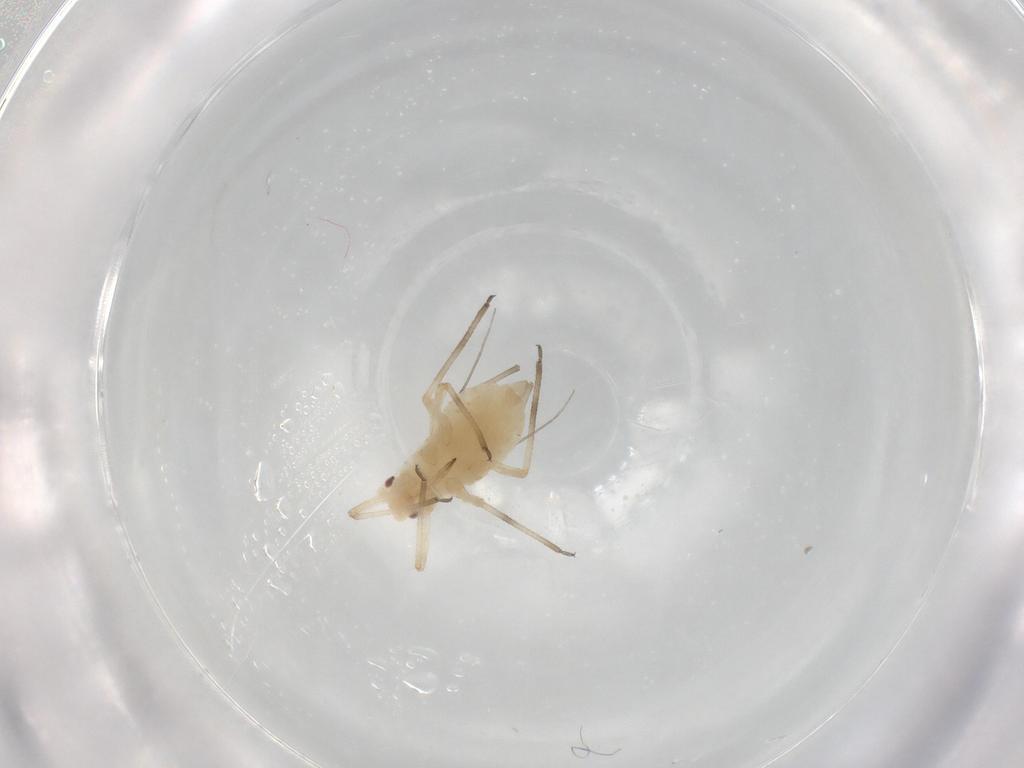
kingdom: Animalia
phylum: Arthropoda
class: Insecta
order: Hemiptera
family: Aphididae
